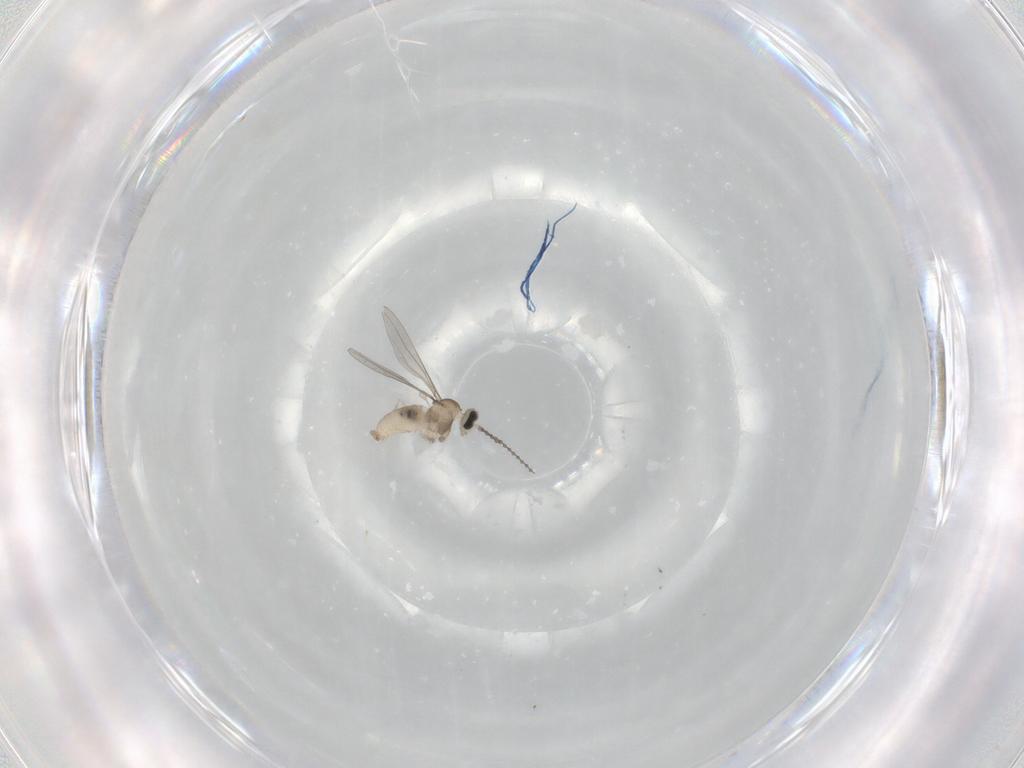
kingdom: Animalia
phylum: Arthropoda
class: Insecta
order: Diptera
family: Cecidomyiidae
